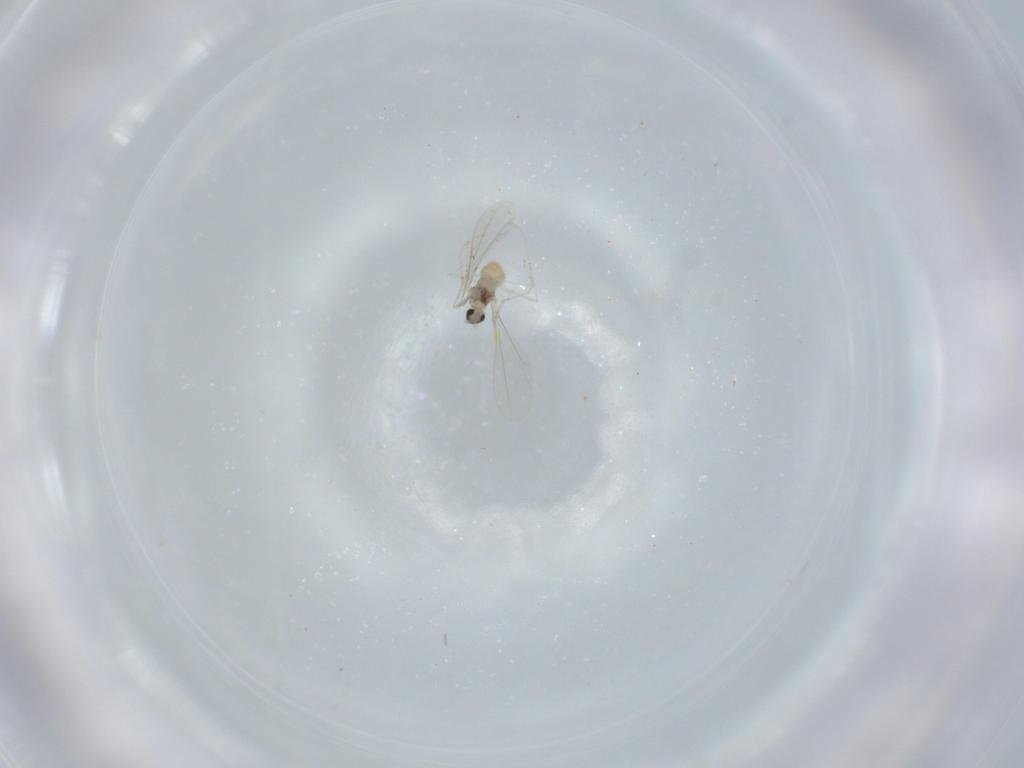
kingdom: Animalia
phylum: Arthropoda
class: Insecta
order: Diptera
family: Cecidomyiidae
